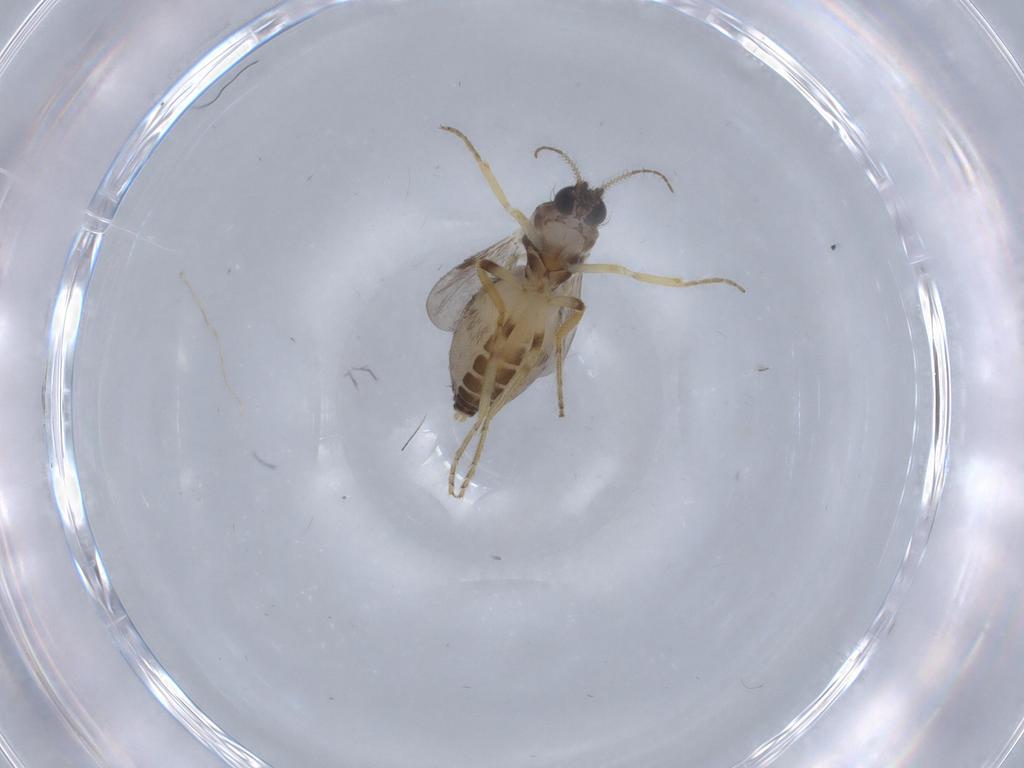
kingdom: Animalia
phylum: Arthropoda
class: Insecta
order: Diptera
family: Ceratopogonidae
